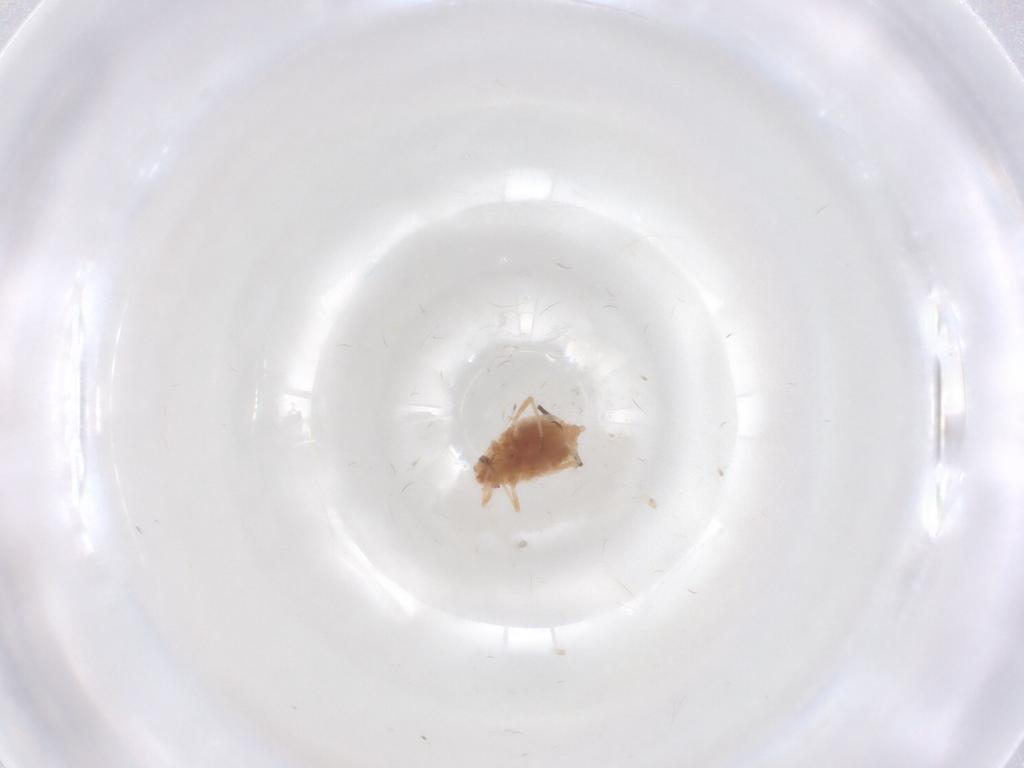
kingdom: Animalia
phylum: Arthropoda
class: Insecta
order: Hemiptera
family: Aphididae
